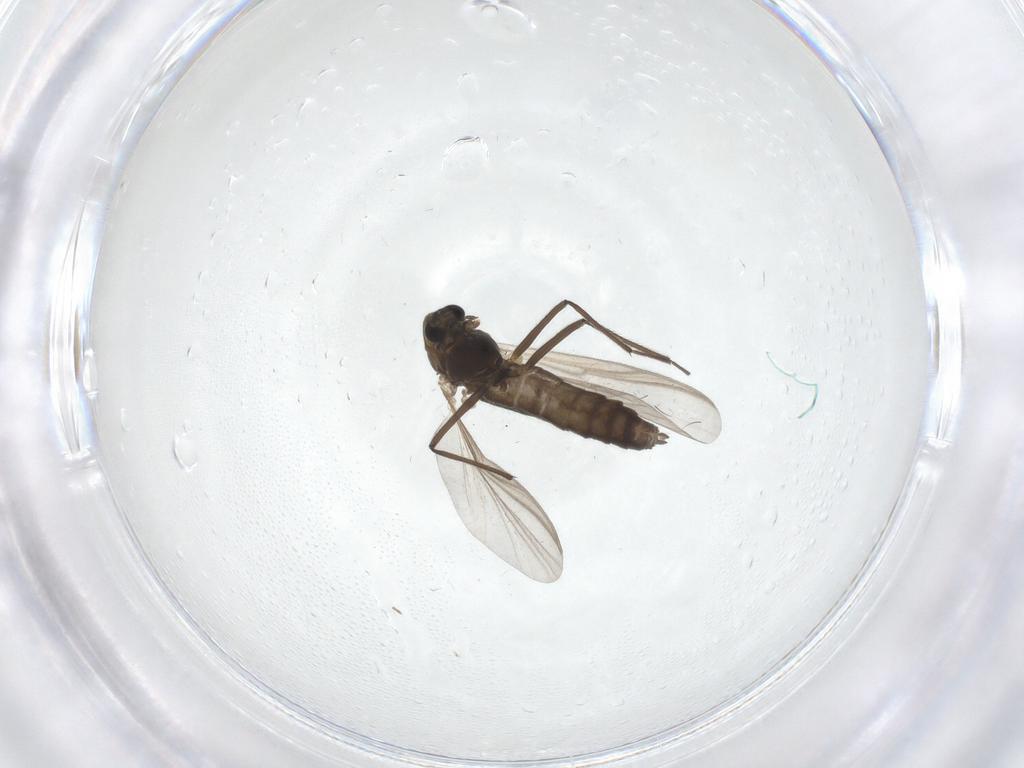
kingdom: Animalia
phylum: Arthropoda
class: Insecta
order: Diptera
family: Chironomidae
